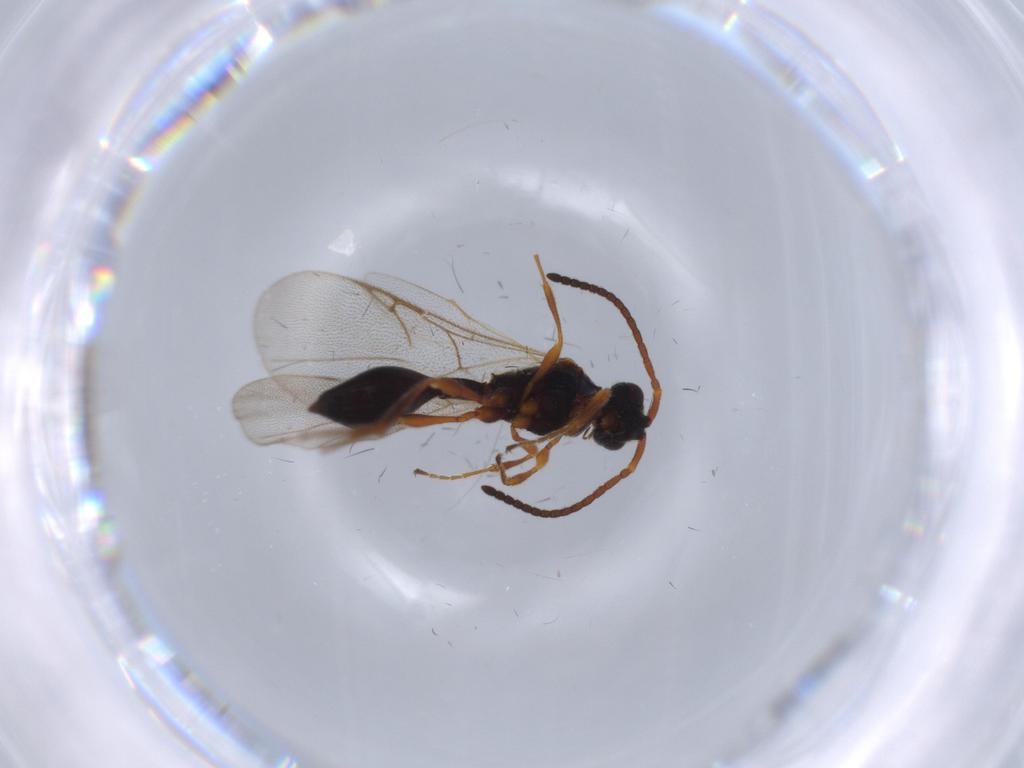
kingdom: Animalia
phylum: Arthropoda
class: Insecta
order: Hymenoptera
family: Diapriidae
